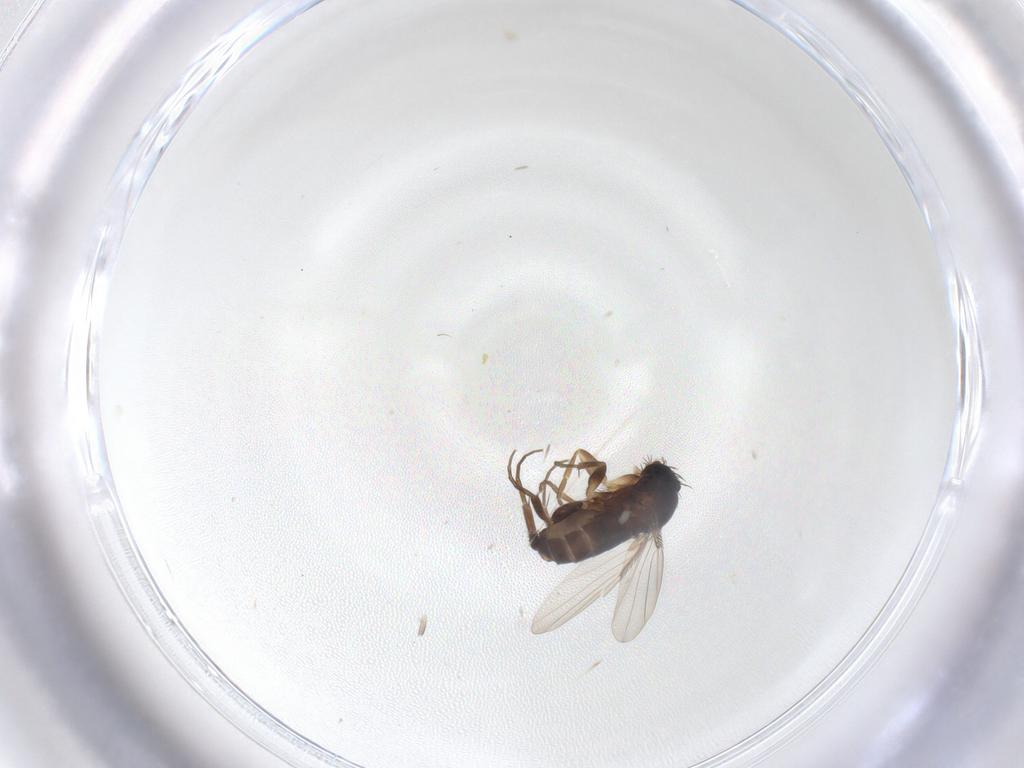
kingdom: Animalia
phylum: Arthropoda
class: Insecta
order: Diptera
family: Phoridae
